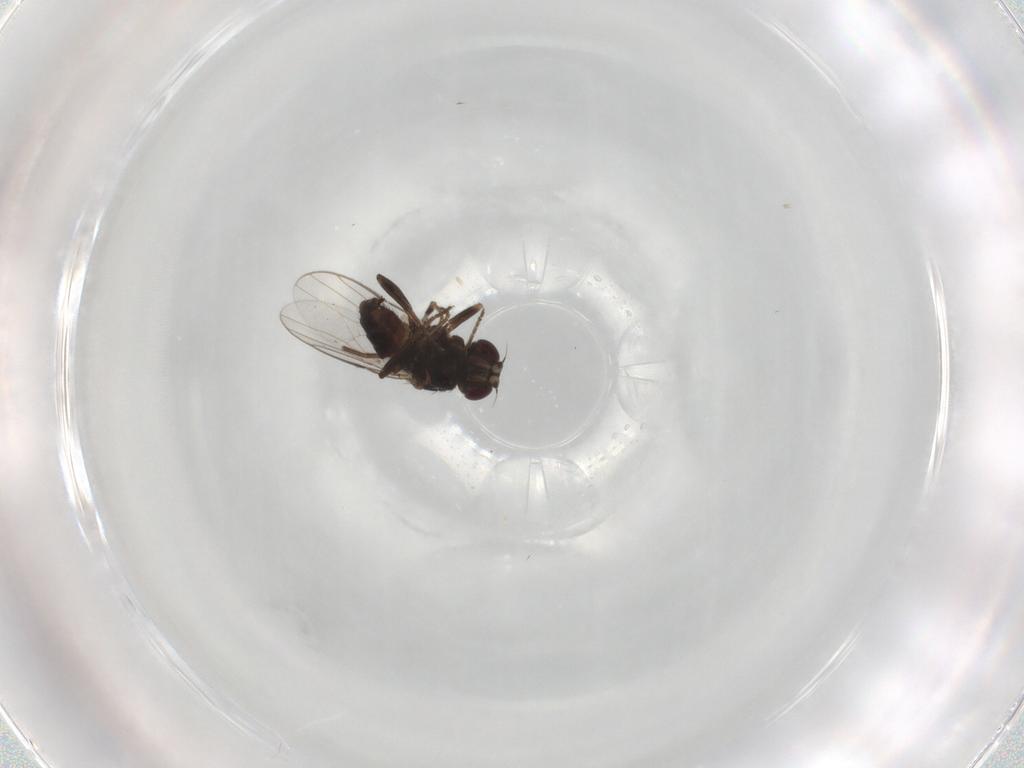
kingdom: Animalia
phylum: Arthropoda
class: Insecta
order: Diptera
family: Chloropidae
